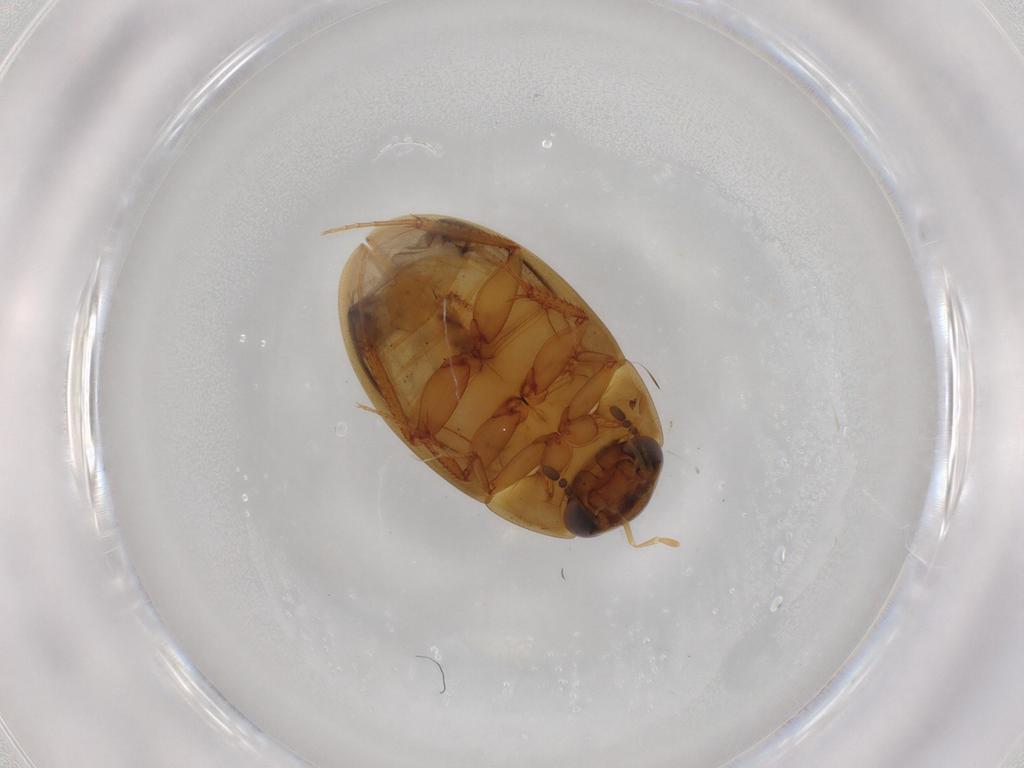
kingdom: Animalia
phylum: Arthropoda
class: Insecta
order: Coleoptera
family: Hydrophilidae
